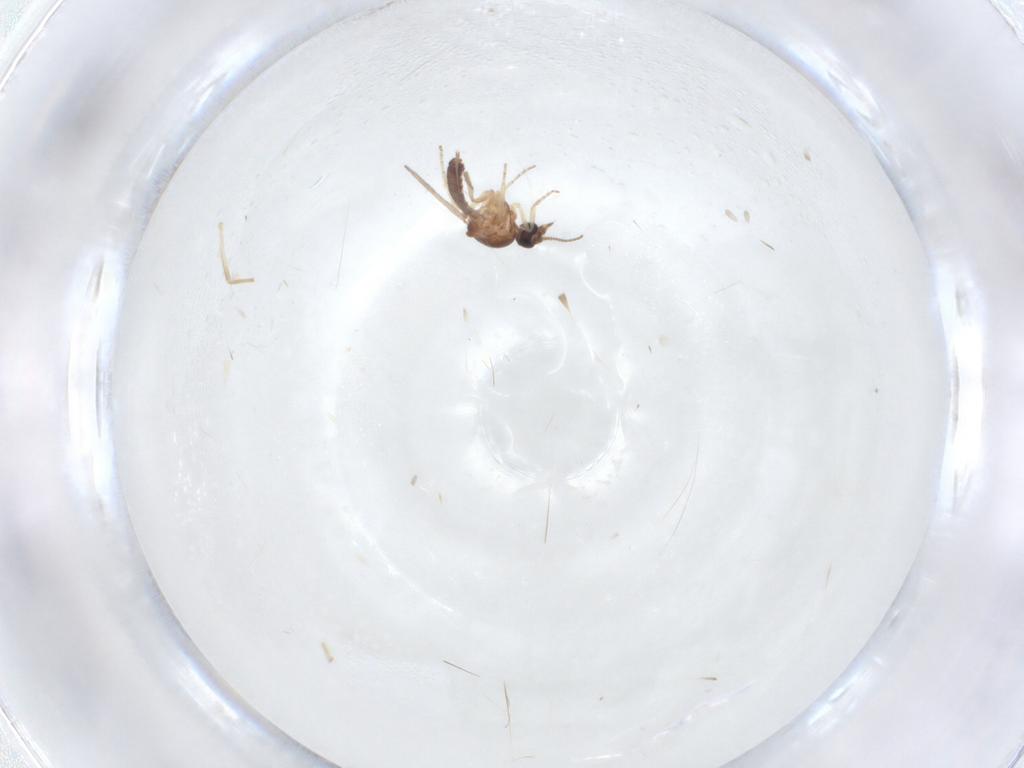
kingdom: Animalia
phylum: Arthropoda
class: Insecta
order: Diptera
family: Ceratopogonidae
